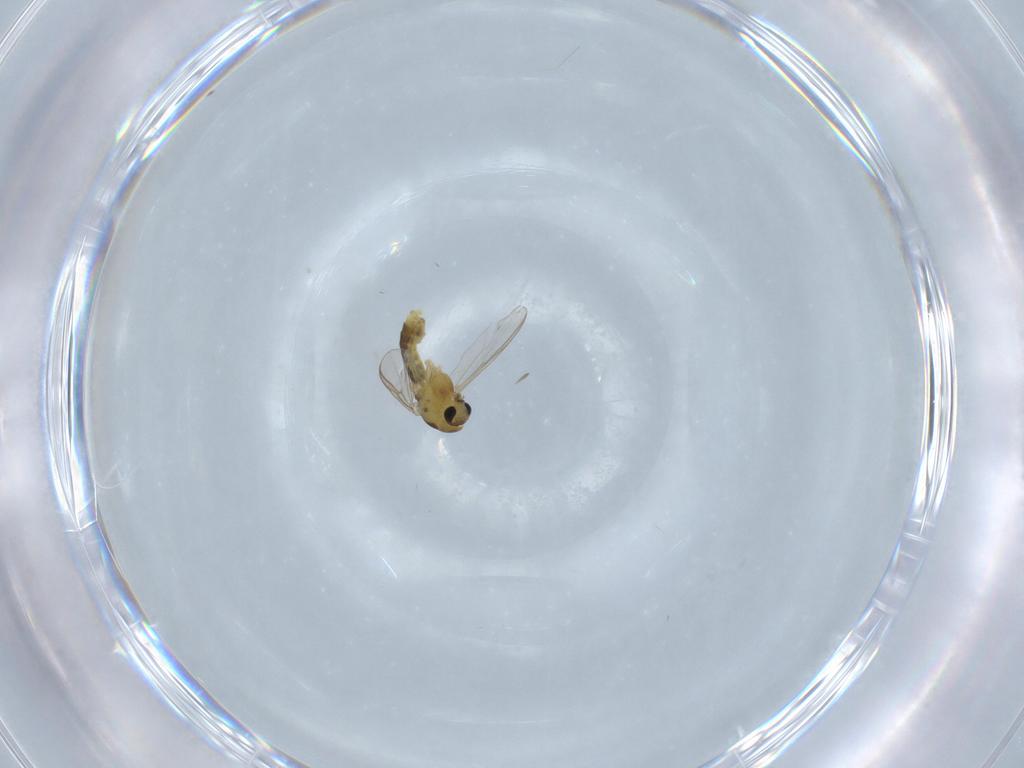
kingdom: Animalia
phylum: Arthropoda
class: Insecta
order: Diptera
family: Chironomidae
